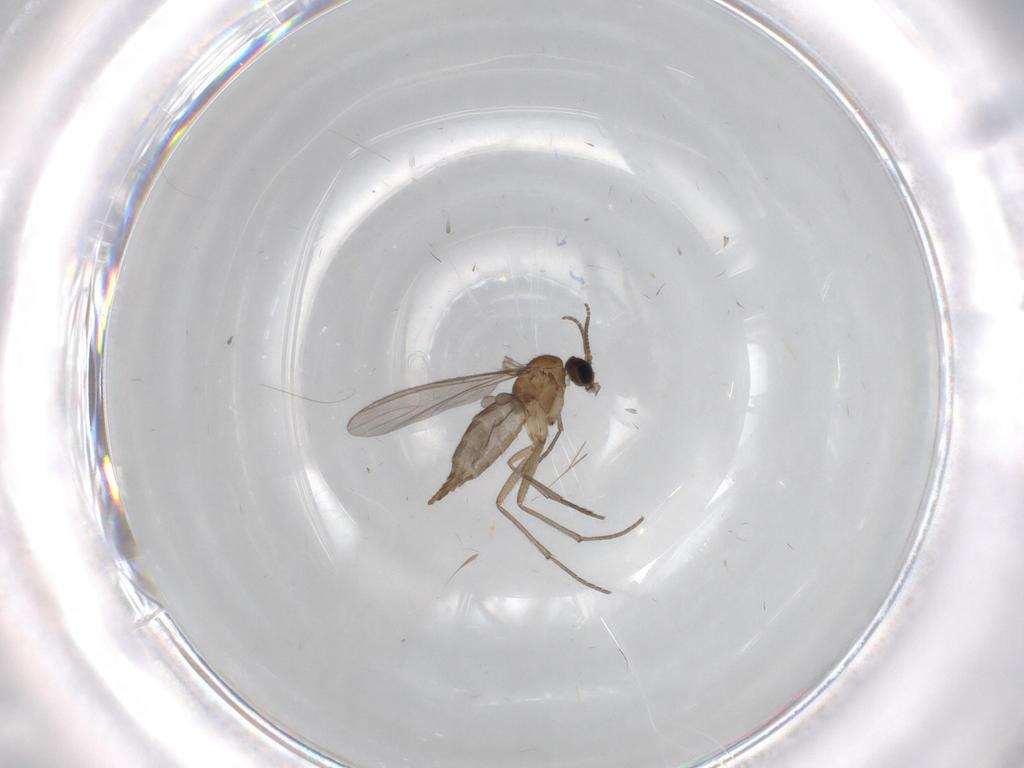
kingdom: Animalia
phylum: Arthropoda
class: Insecta
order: Diptera
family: Sciaridae
